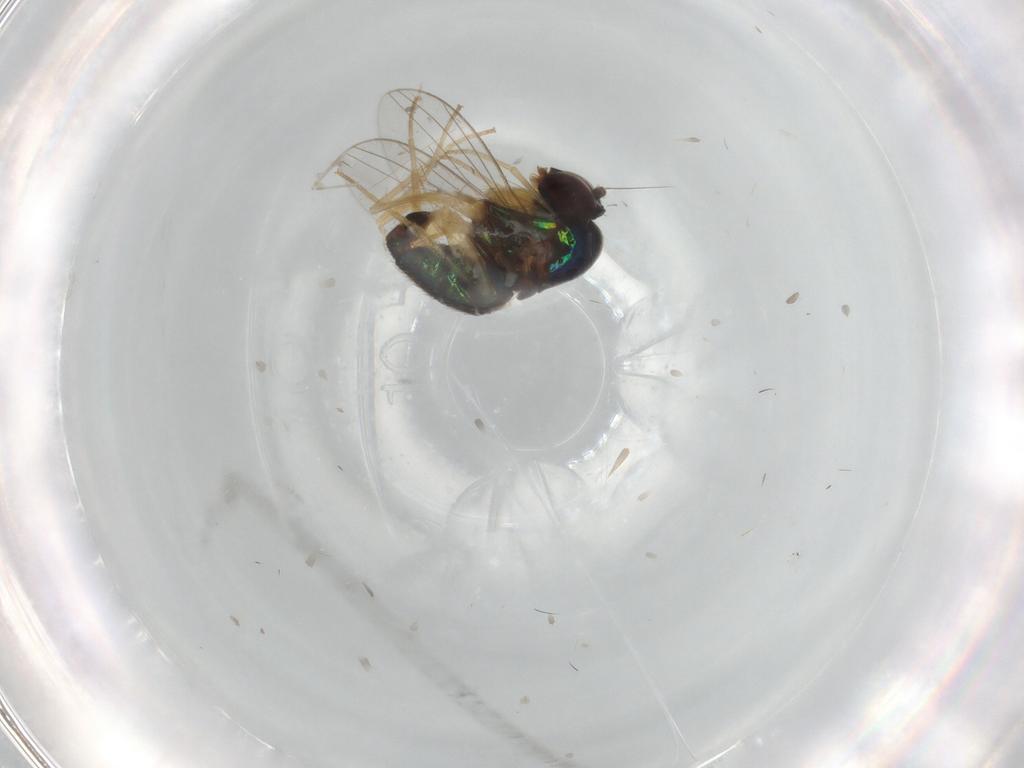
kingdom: Animalia
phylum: Arthropoda
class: Insecta
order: Diptera
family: Dolichopodidae
